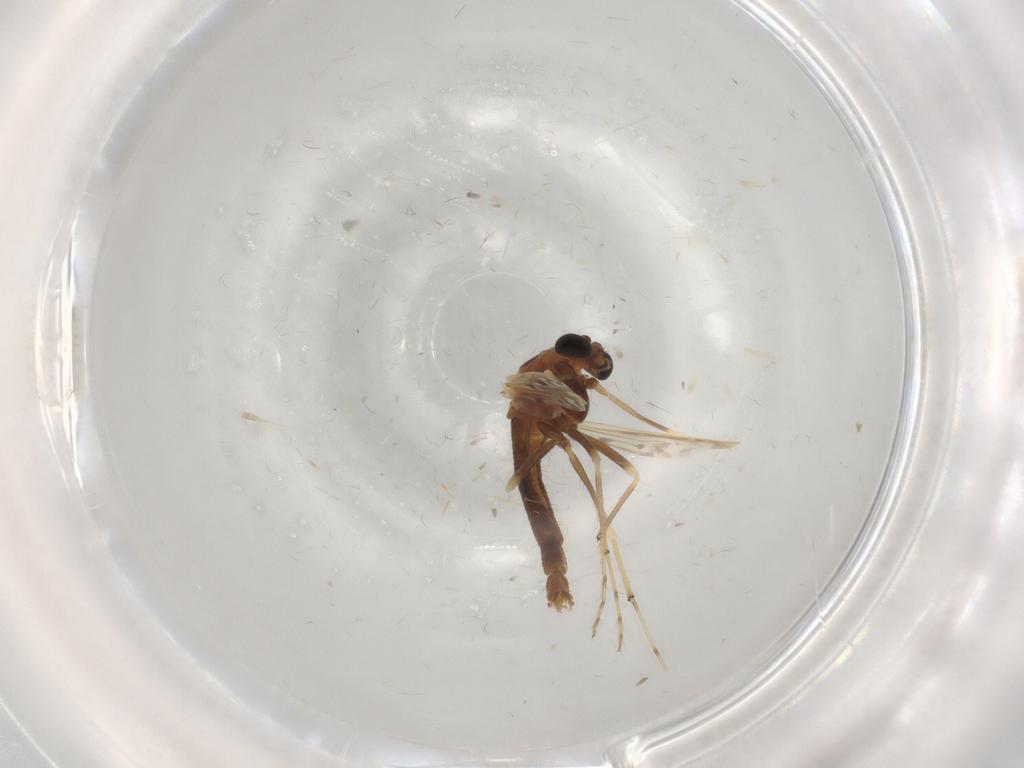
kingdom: Animalia
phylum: Arthropoda
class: Insecta
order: Diptera
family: Chironomidae
